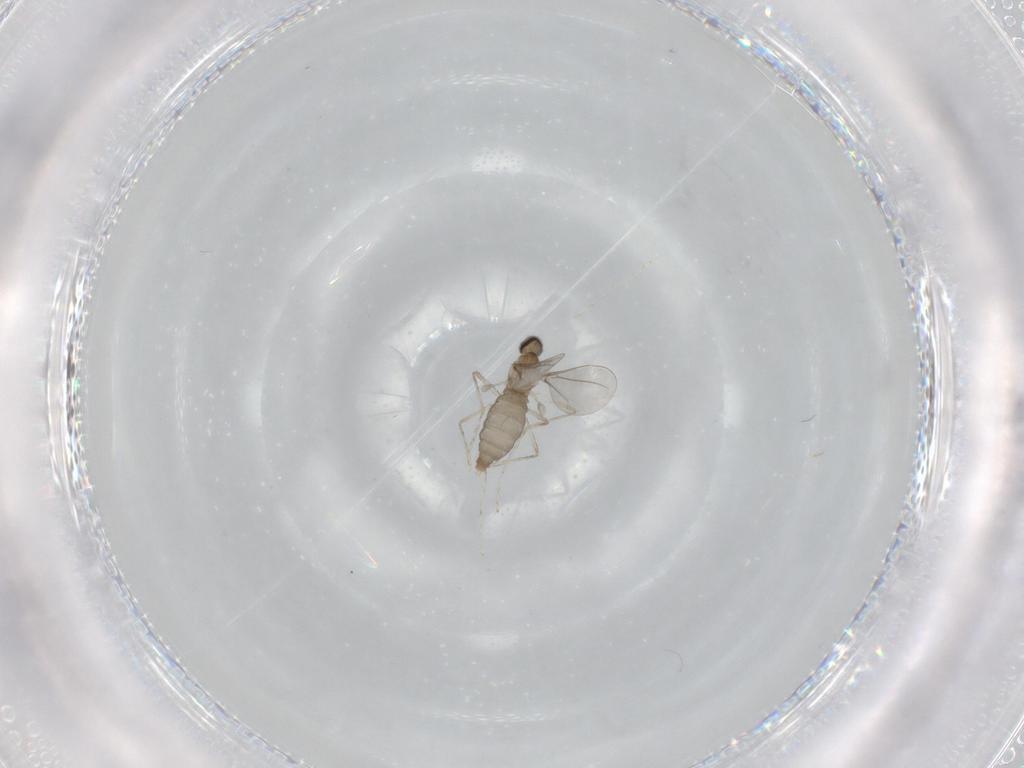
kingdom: Animalia
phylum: Arthropoda
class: Insecta
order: Diptera
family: Cecidomyiidae
